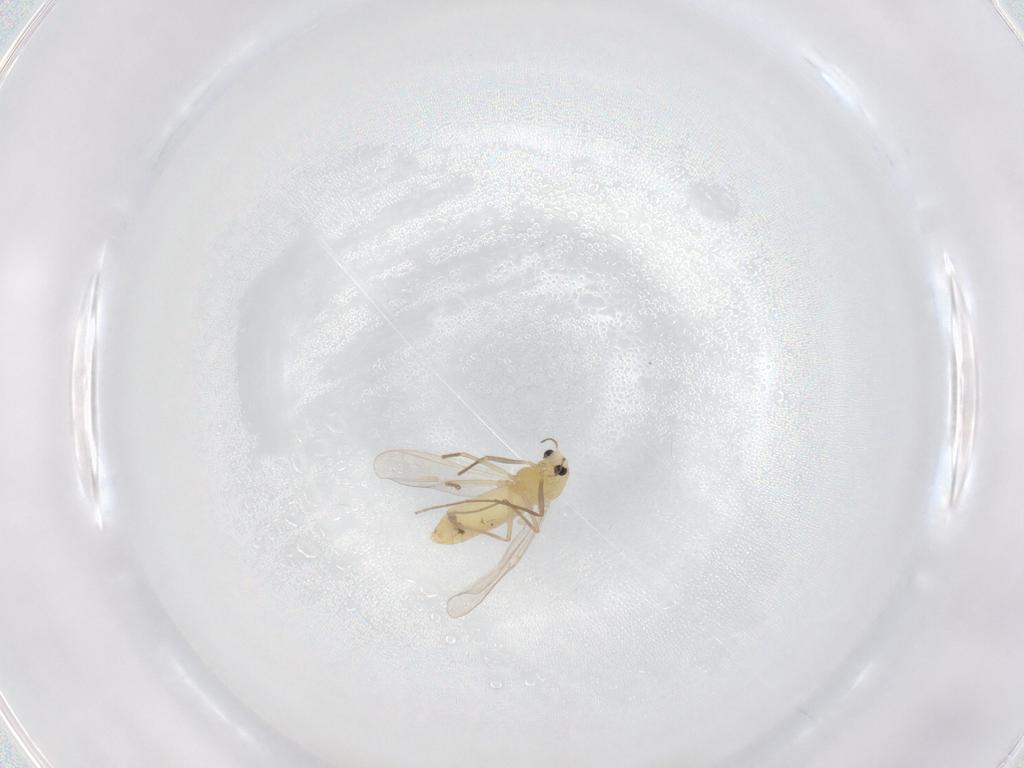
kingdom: Animalia
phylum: Arthropoda
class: Insecta
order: Diptera
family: Chironomidae
